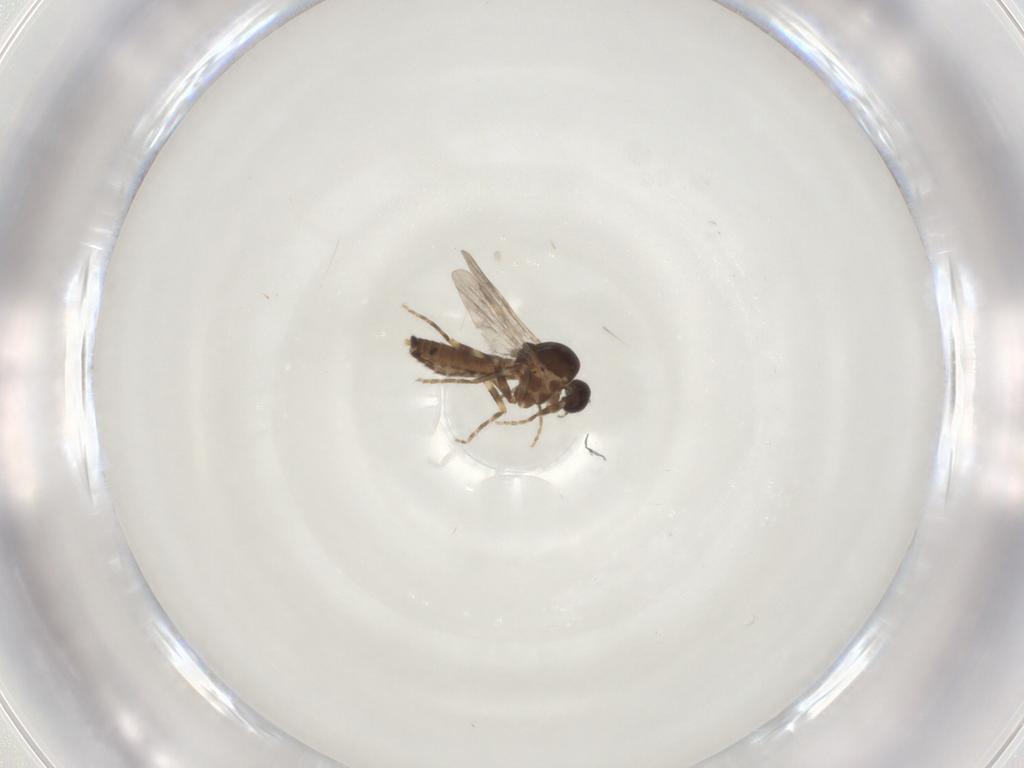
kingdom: Animalia
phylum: Arthropoda
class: Insecta
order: Diptera
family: Ceratopogonidae
